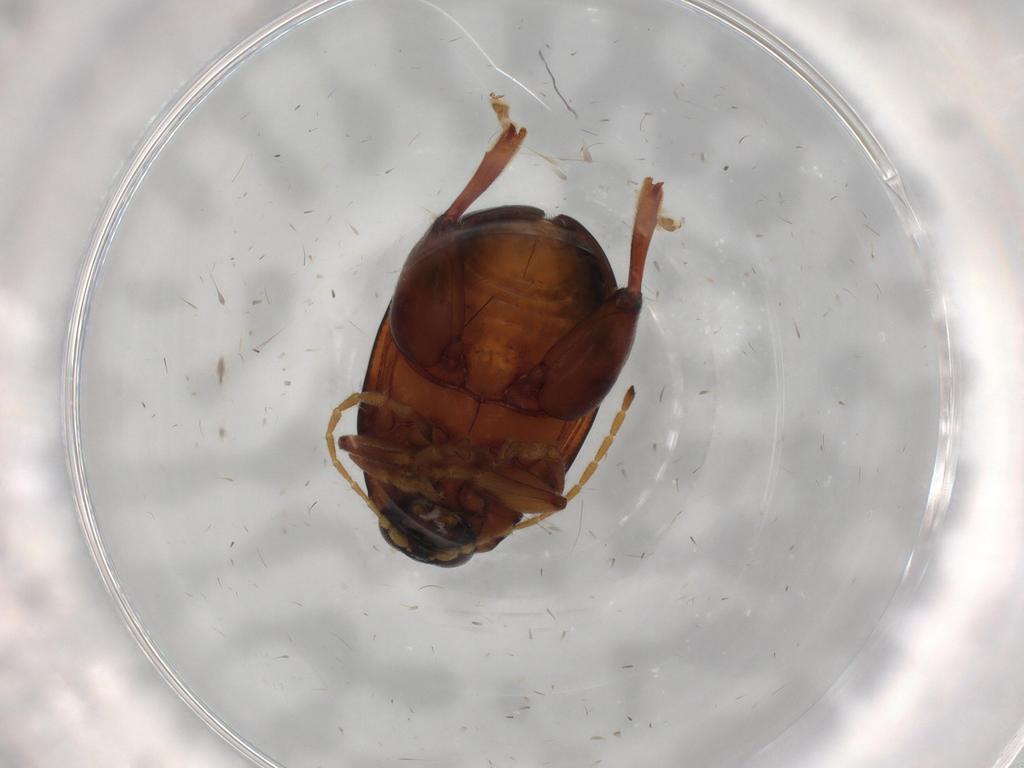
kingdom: Animalia
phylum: Arthropoda
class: Insecta
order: Coleoptera
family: Chrysomelidae
